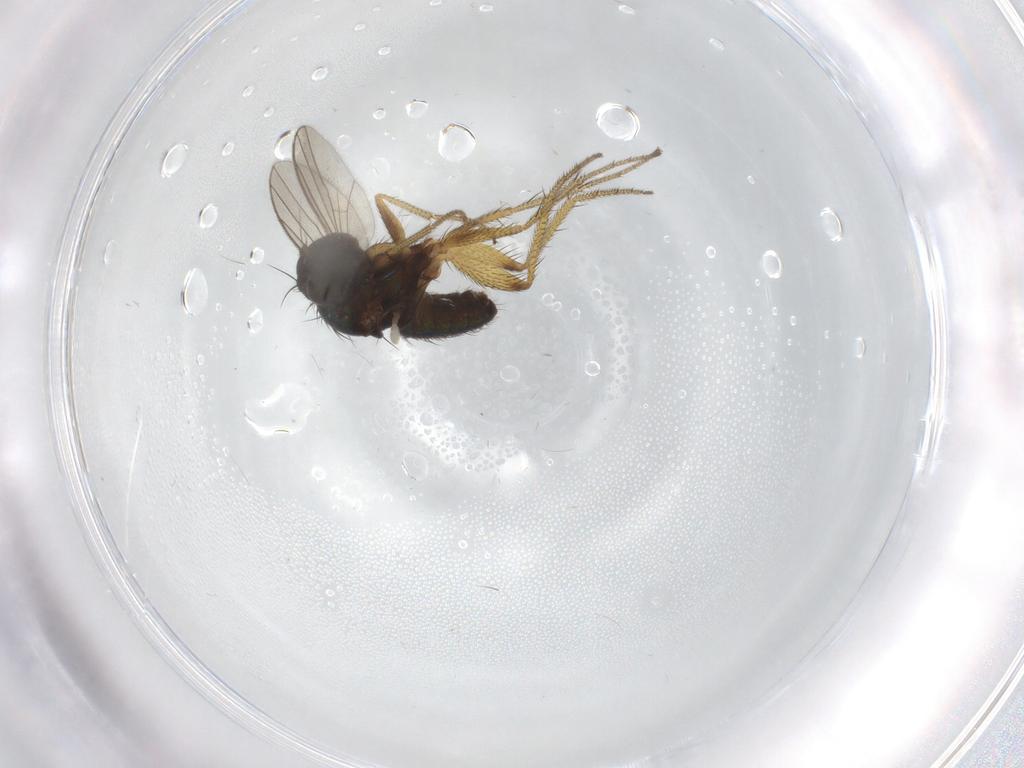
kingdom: Animalia
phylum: Arthropoda
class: Insecta
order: Diptera
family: Dolichopodidae
